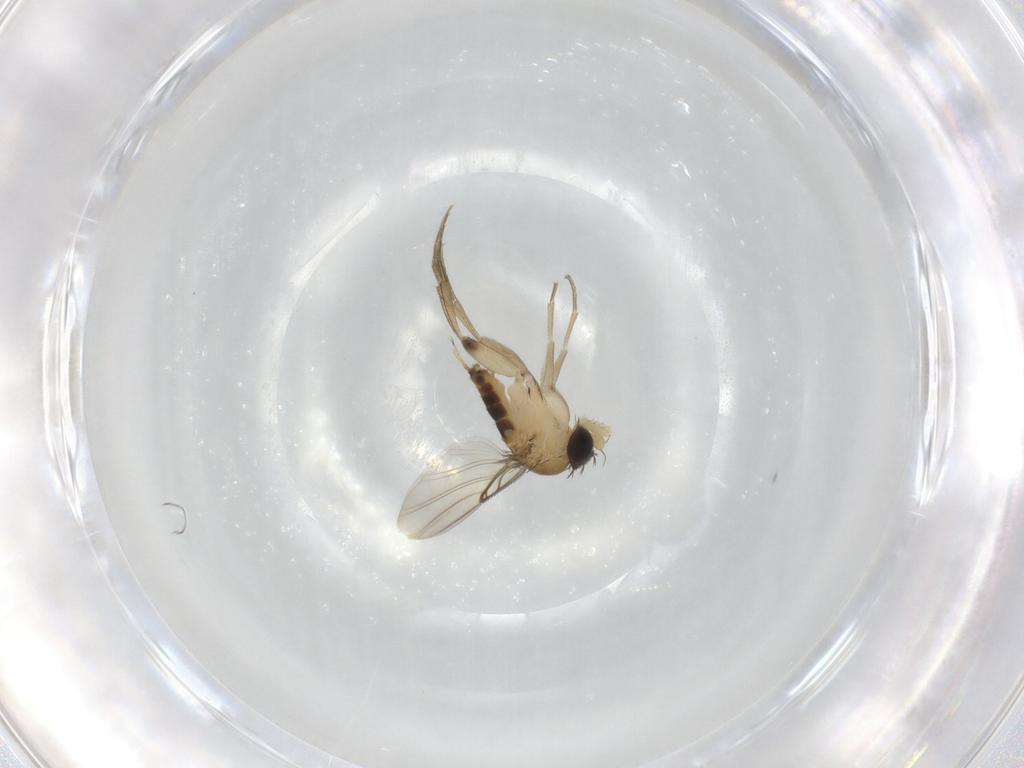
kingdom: Animalia
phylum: Arthropoda
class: Insecta
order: Diptera
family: Phoridae
